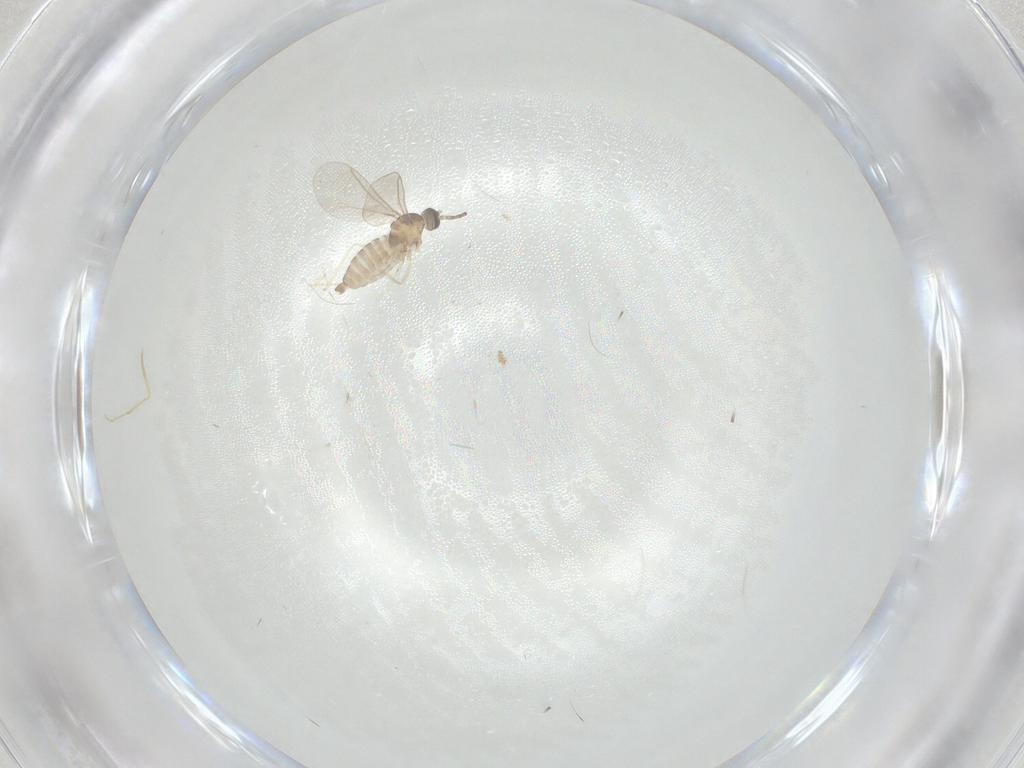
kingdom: Animalia
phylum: Arthropoda
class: Insecta
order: Diptera
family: Cecidomyiidae
